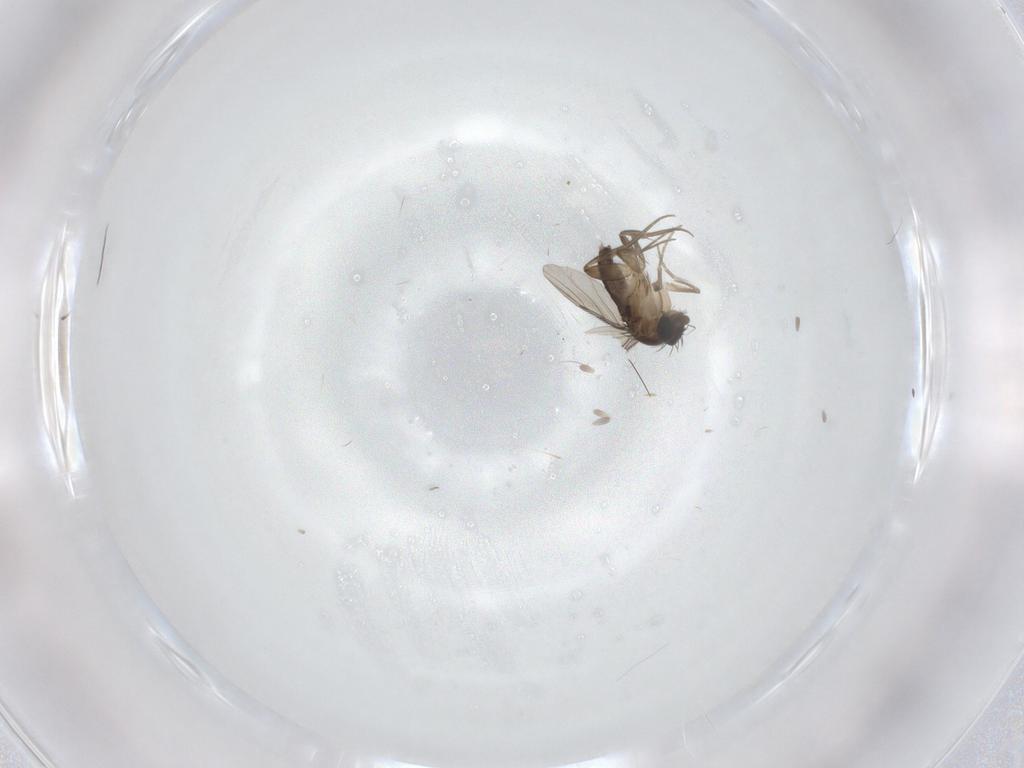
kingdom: Animalia
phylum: Arthropoda
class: Insecta
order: Diptera
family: Phoridae
